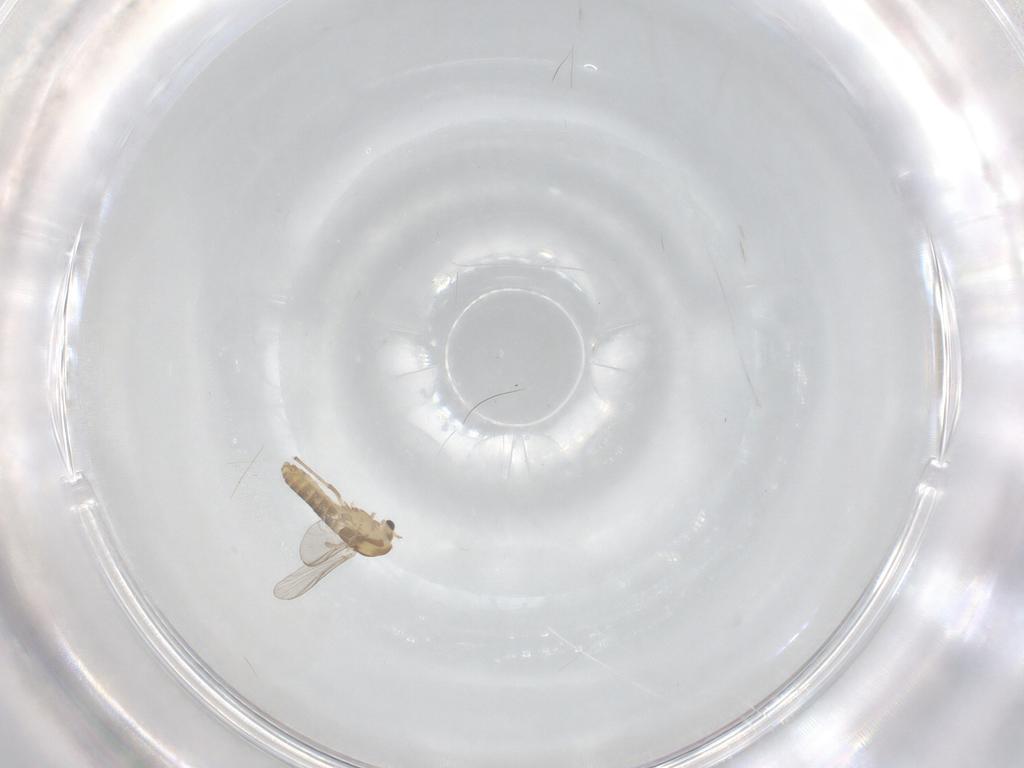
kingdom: Animalia
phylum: Arthropoda
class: Insecta
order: Diptera
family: Chironomidae
